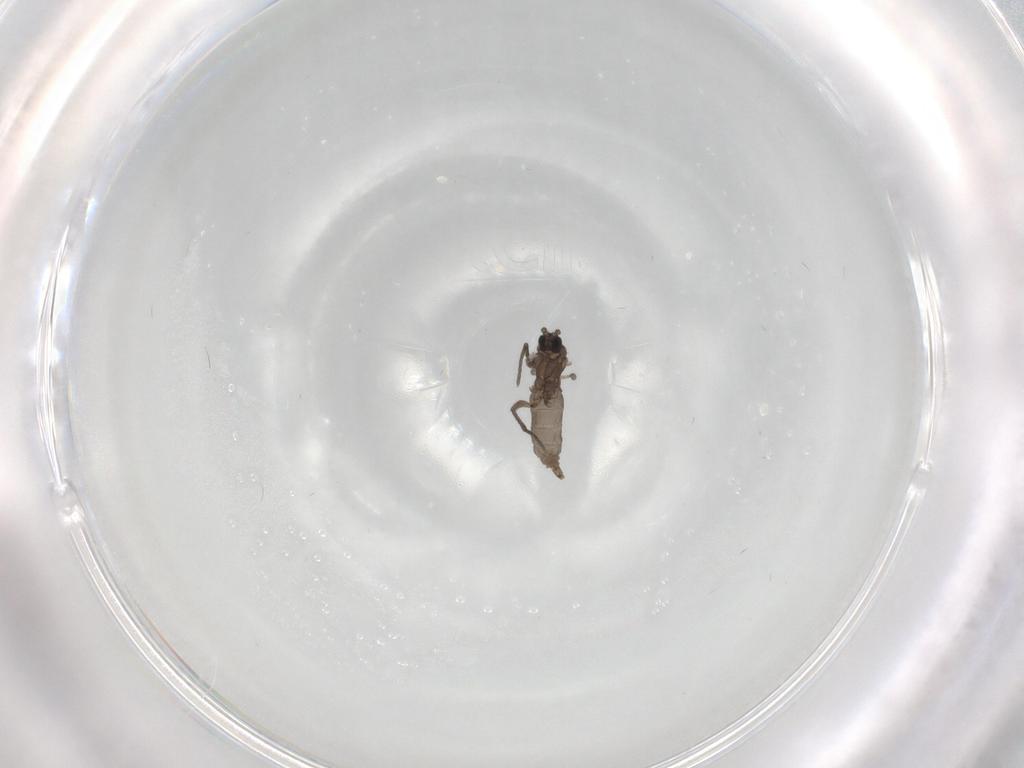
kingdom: Animalia
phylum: Arthropoda
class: Insecta
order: Diptera
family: Sciaridae
